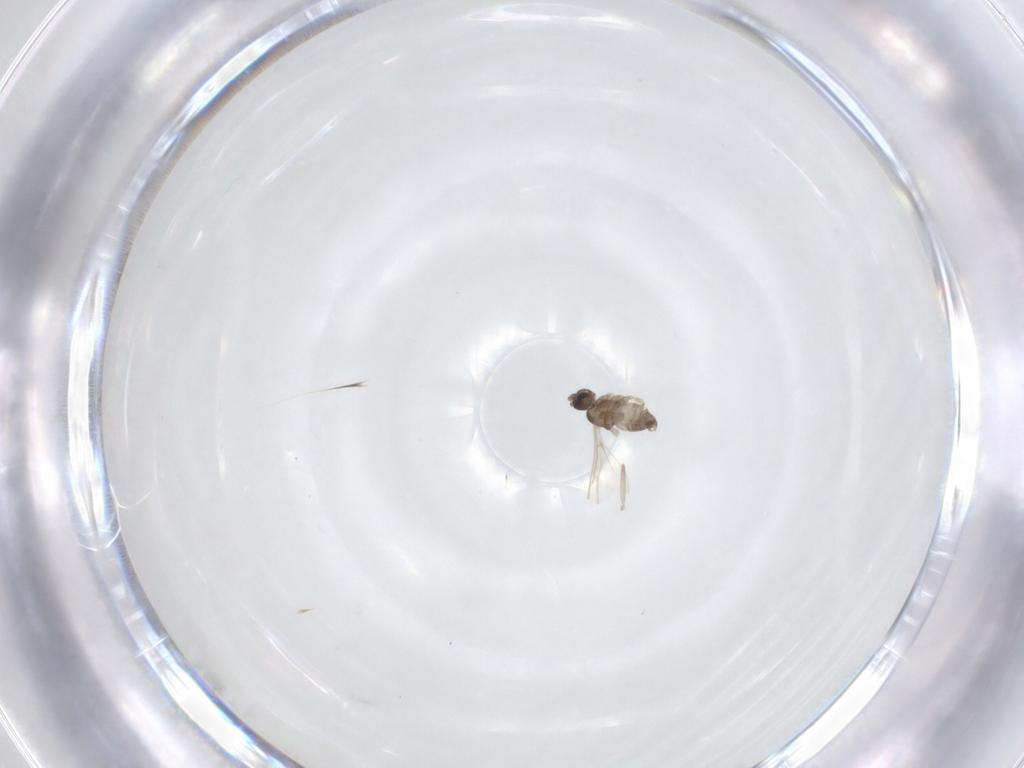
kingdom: Animalia
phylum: Arthropoda
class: Insecta
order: Diptera
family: Cecidomyiidae
